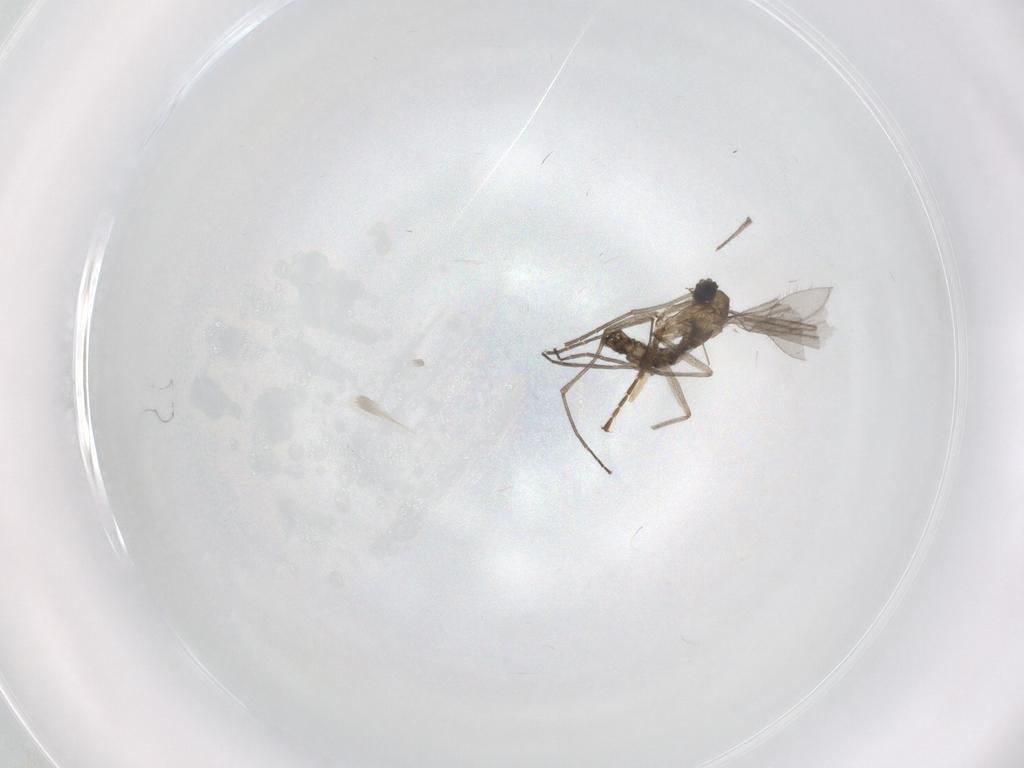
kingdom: Animalia
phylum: Arthropoda
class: Insecta
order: Diptera
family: Sciaridae
